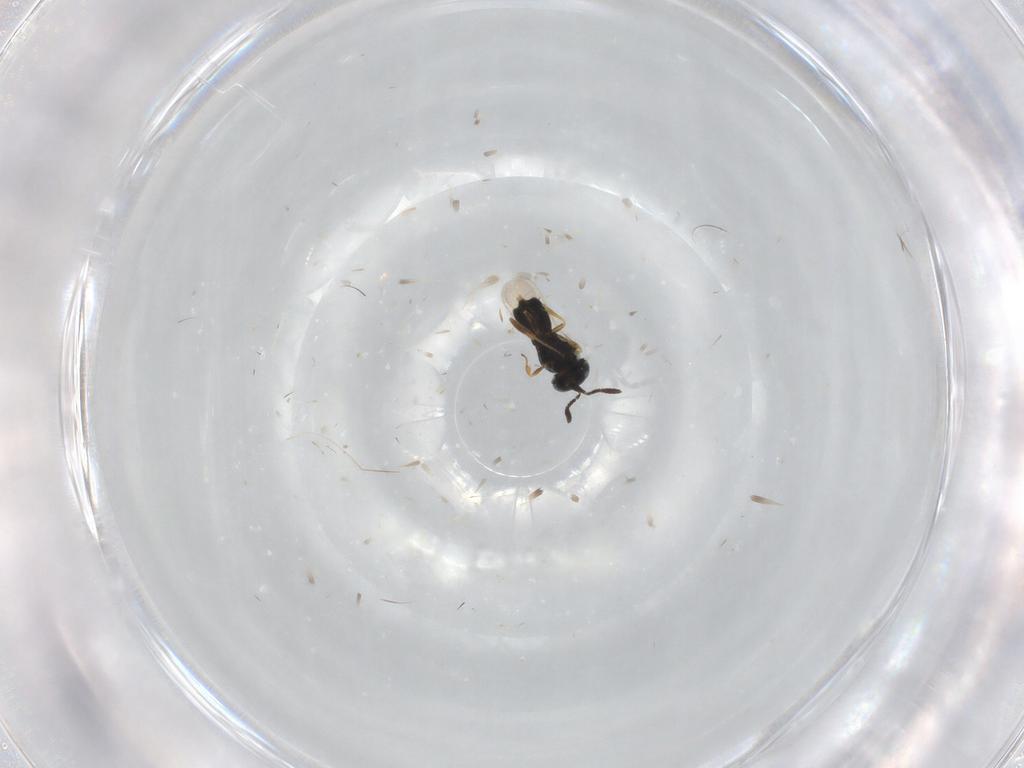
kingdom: Animalia
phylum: Arthropoda
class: Insecta
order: Hymenoptera
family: Scelionidae
